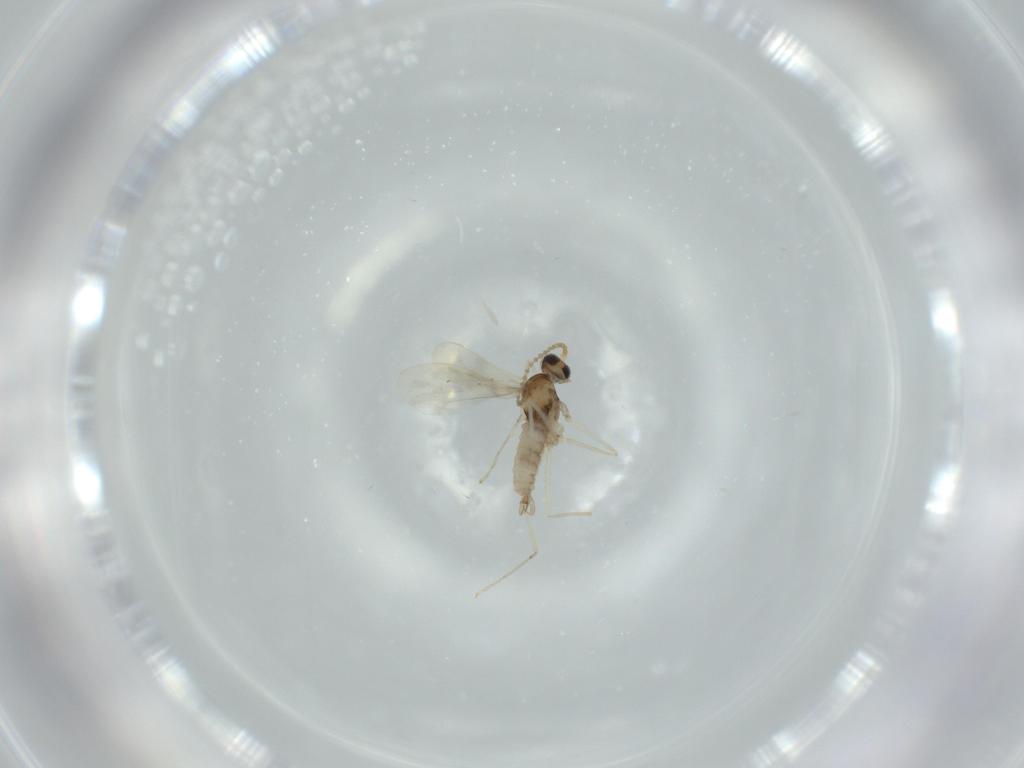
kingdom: Animalia
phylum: Arthropoda
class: Insecta
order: Diptera
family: Cecidomyiidae
